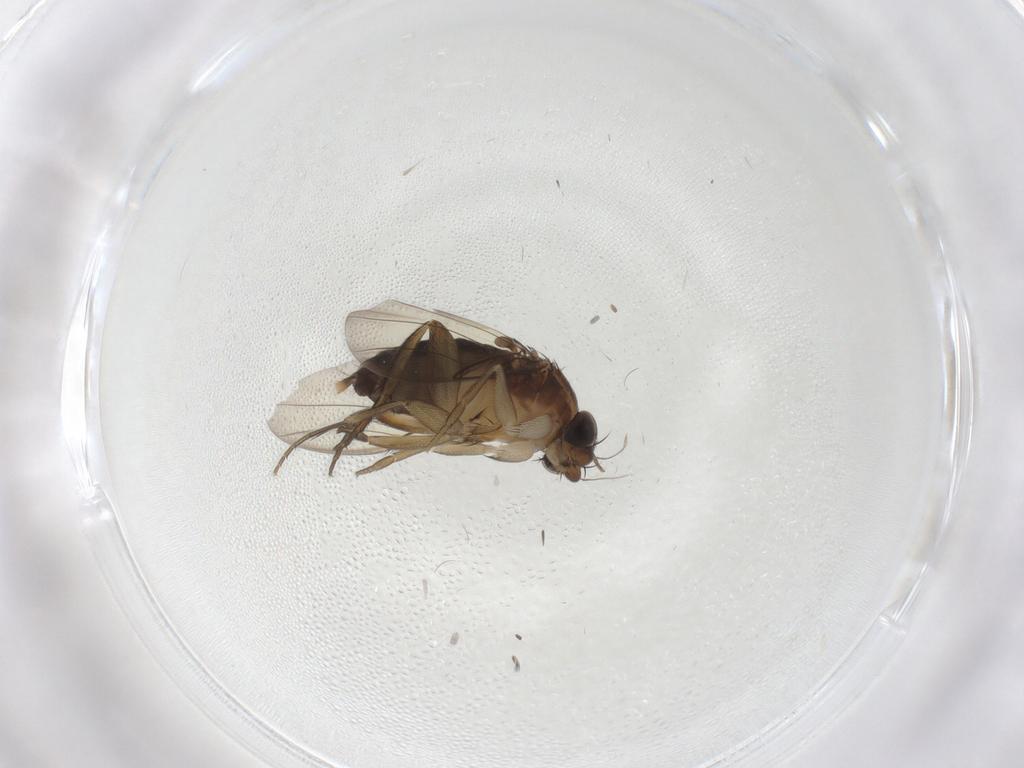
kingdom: Animalia
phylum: Arthropoda
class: Insecta
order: Diptera
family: Phoridae
